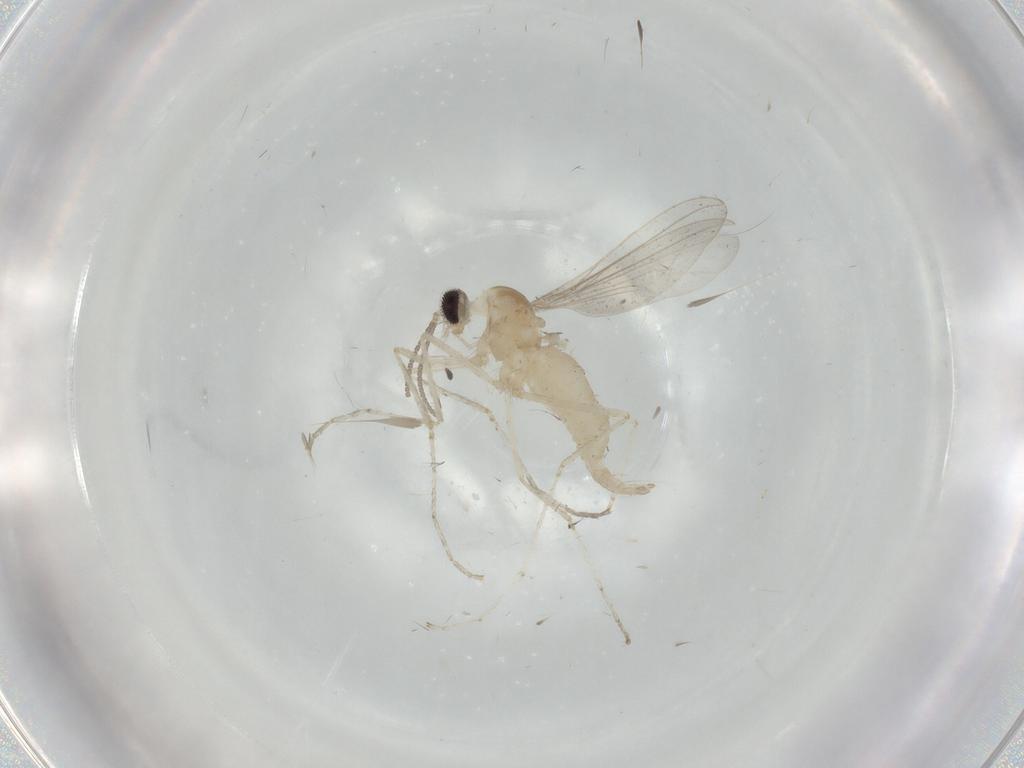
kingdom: Animalia
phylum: Arthropoda
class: Insecta
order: Diptera
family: Cecidomyiidae
